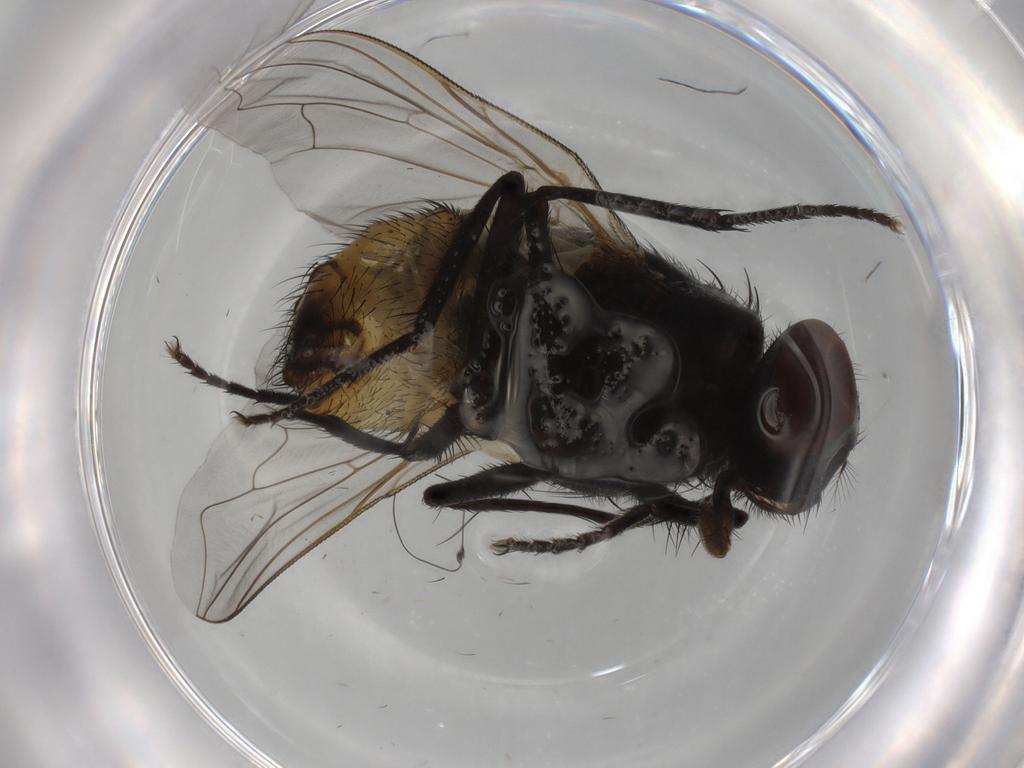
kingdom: Animalia
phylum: Arthropoda
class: Insecta
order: Diptera
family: Muscidae
